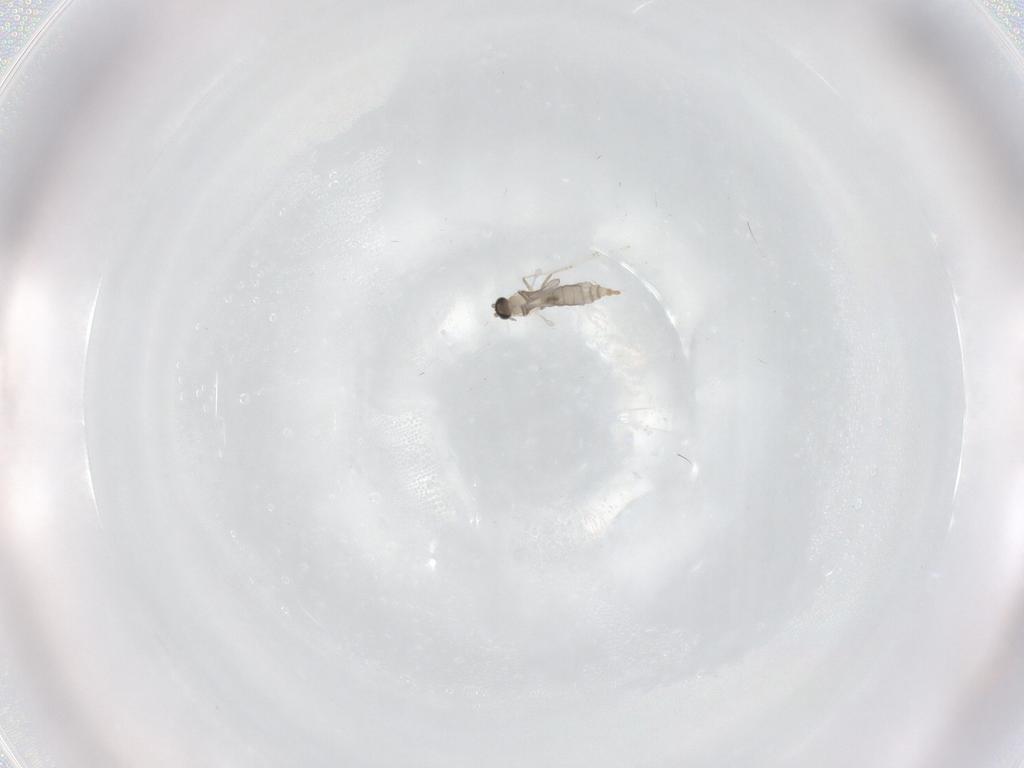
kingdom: Animalia
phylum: Arthropoda
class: Insecta
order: Diptera
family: Cecidomyiidae
